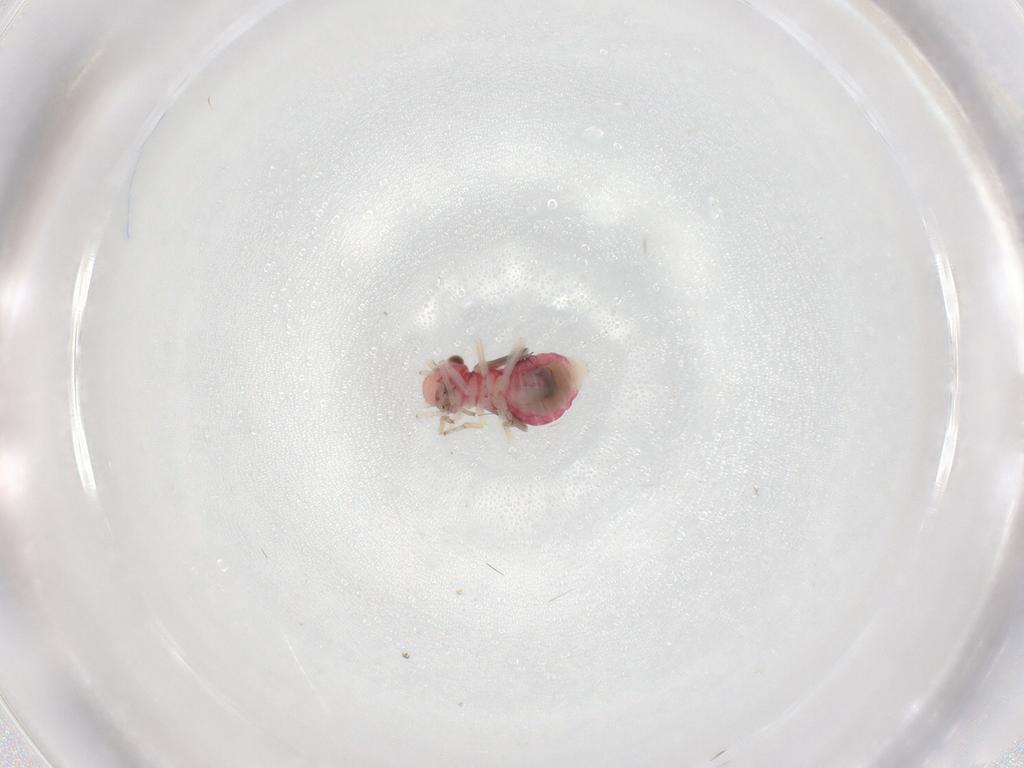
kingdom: Animalia
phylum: Arthropoda
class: Insecta
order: Psocodea
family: Caeciliusidae
